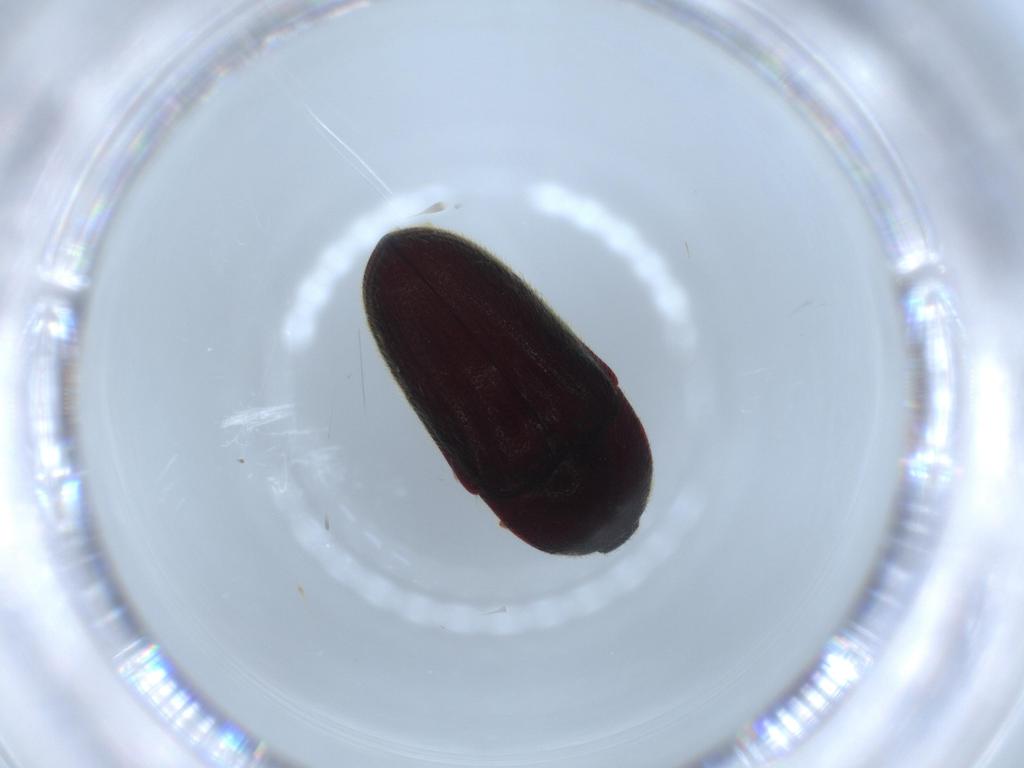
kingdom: Animalia
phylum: Arthropoda
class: Insecta
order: Coleoptera
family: Throscidae
